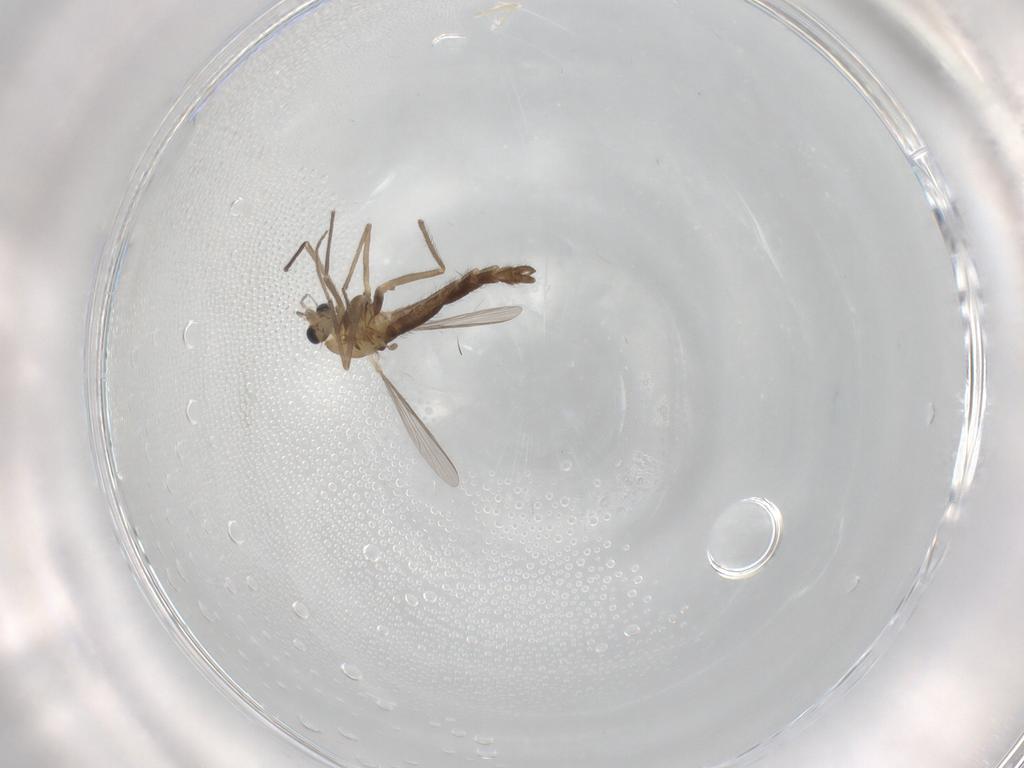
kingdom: Animalia
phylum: Arthropoda
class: Insecta
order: Diptera
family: Chironomidae
